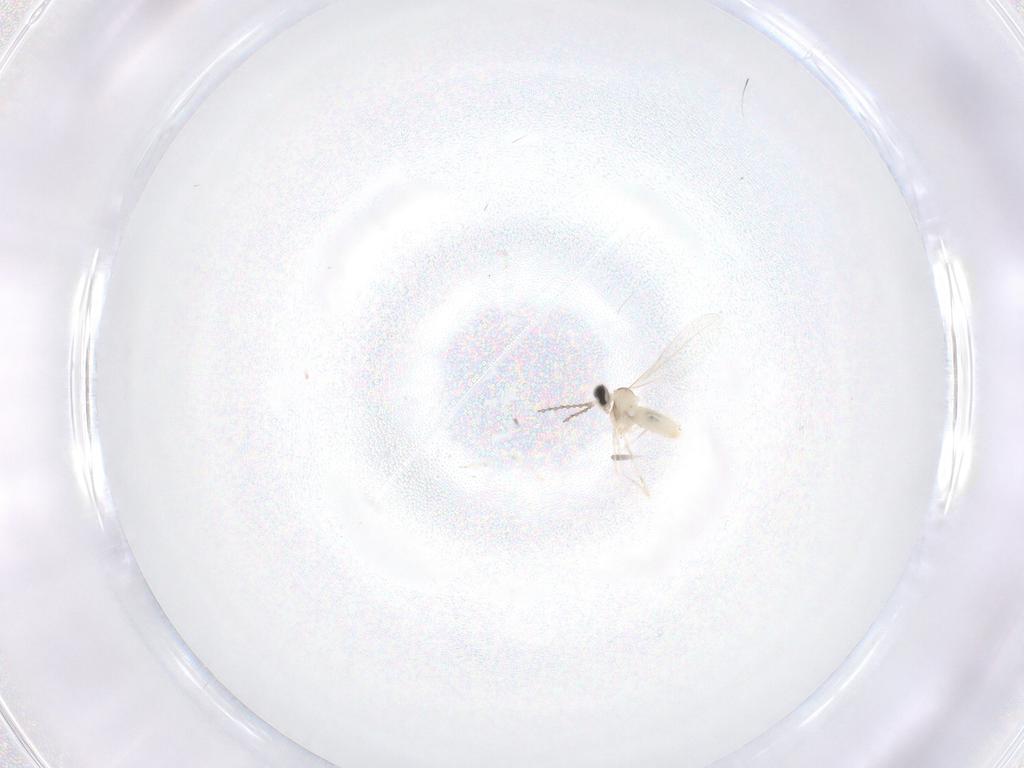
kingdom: Animalia
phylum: Arthropoda
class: Insecta
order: Diptera
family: Cecidomyiidae
